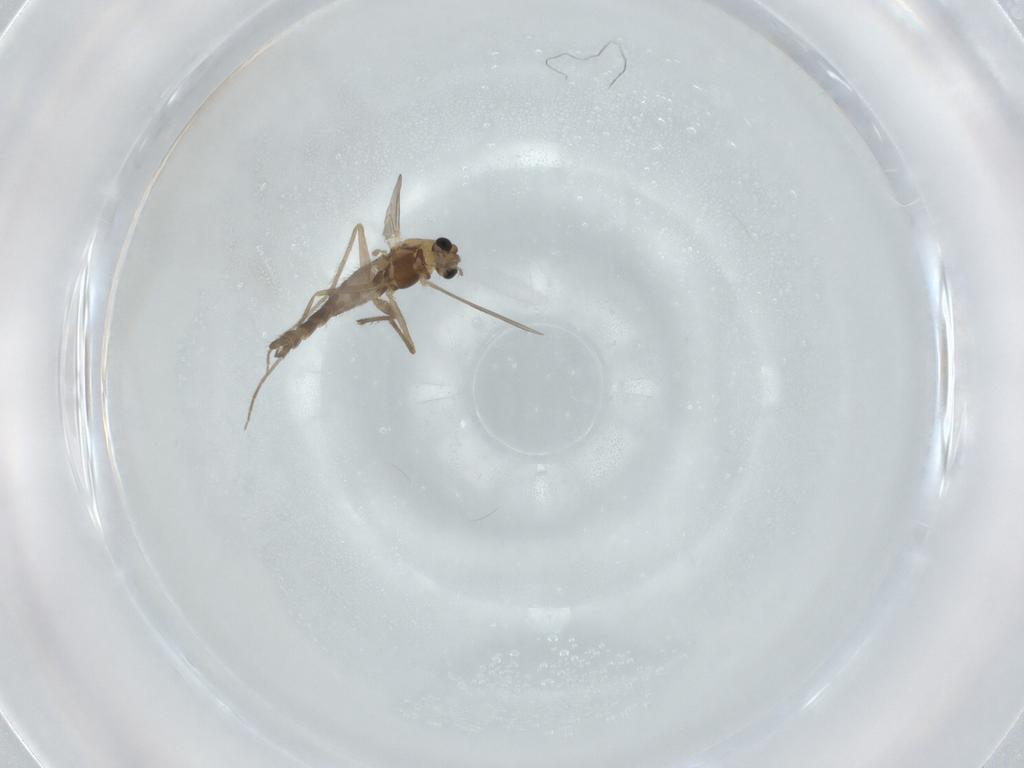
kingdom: Animalia
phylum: Arthropoda
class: Insecta
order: Diptera
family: Chironomidae
